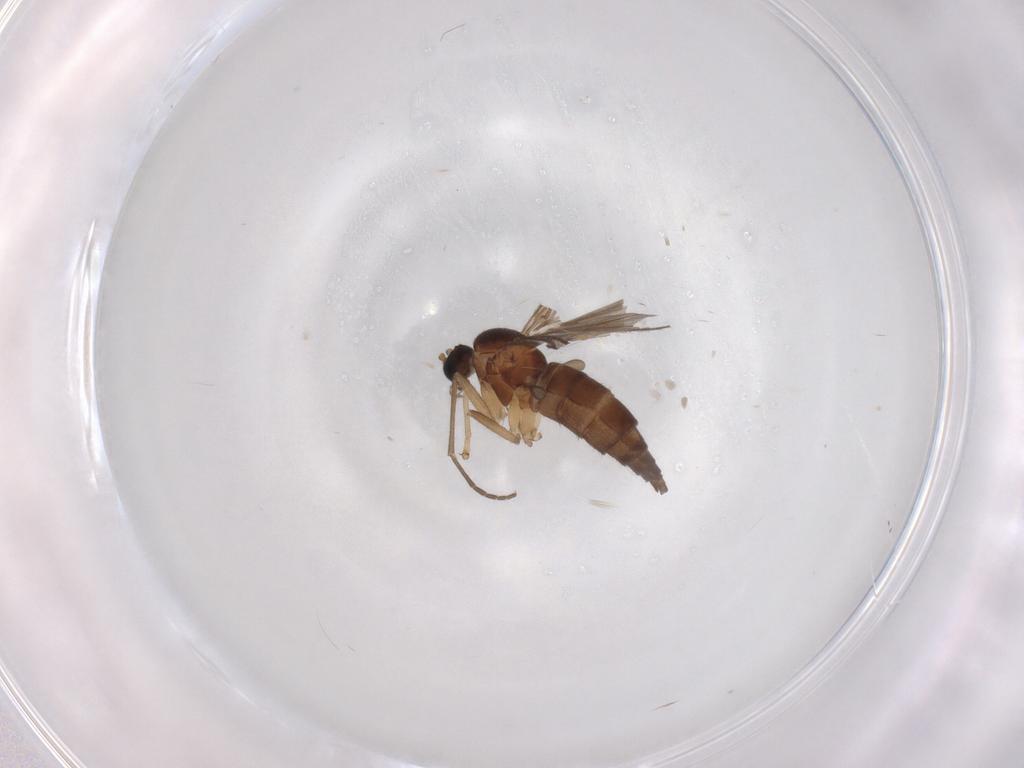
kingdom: Animalia
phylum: Arthropoda
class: Insecta
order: Diptera
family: Sciaridae
